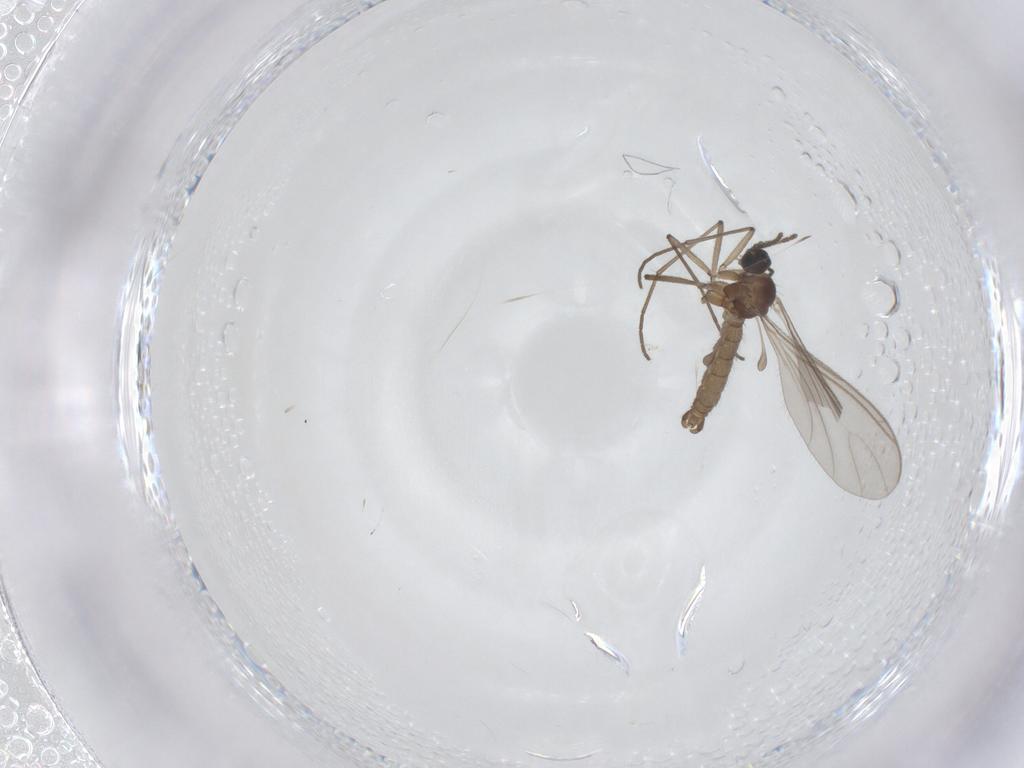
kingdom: Animalia
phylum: Arthropoda
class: Insecta
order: Diptera
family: Sciaridae
